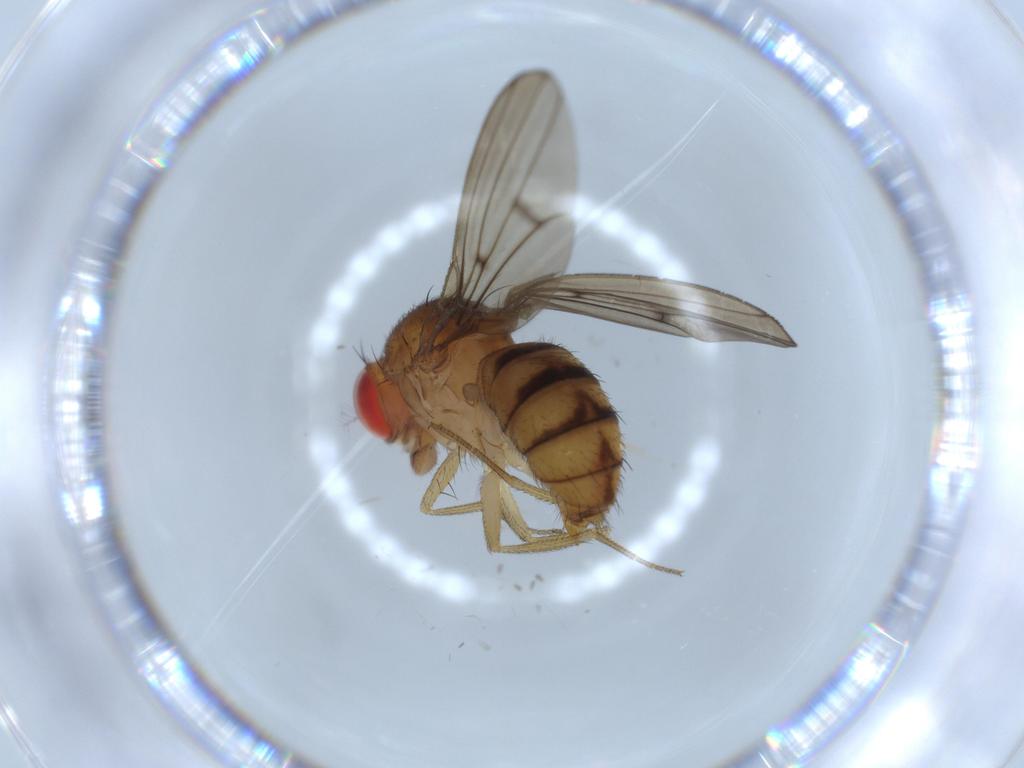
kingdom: Animalia
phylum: Arthropoda
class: Insecta
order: Diptera
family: Drosophilidae
